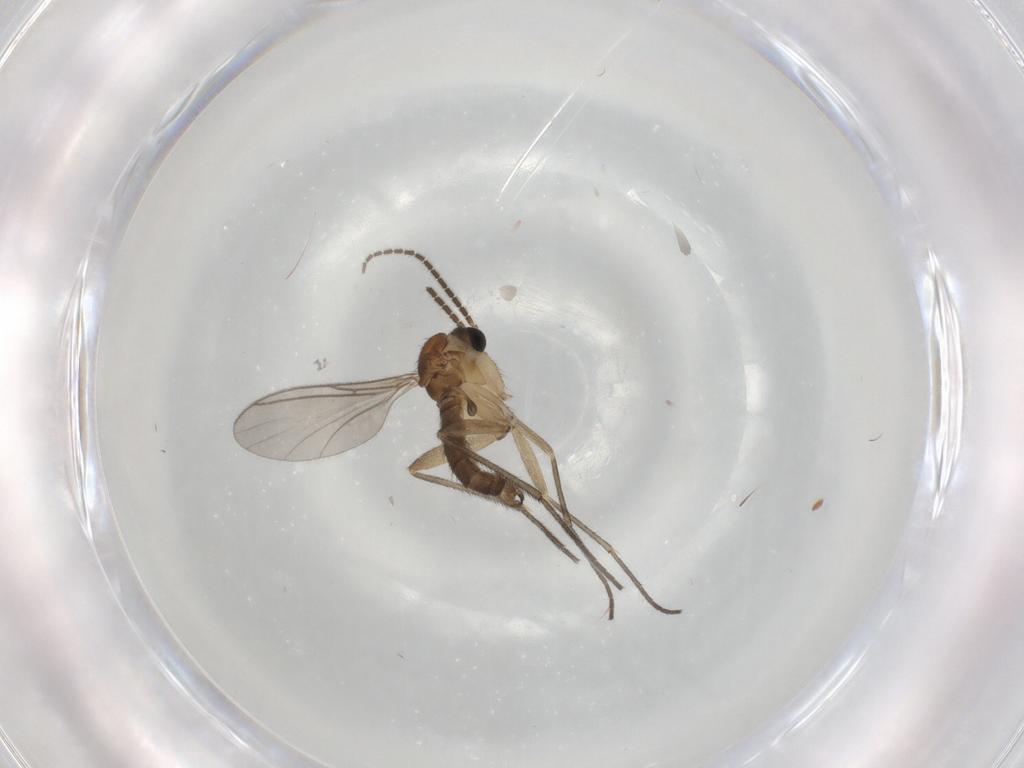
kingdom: Animalia
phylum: Arthropoda
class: Insecta
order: Diptera
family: Sciaridae
